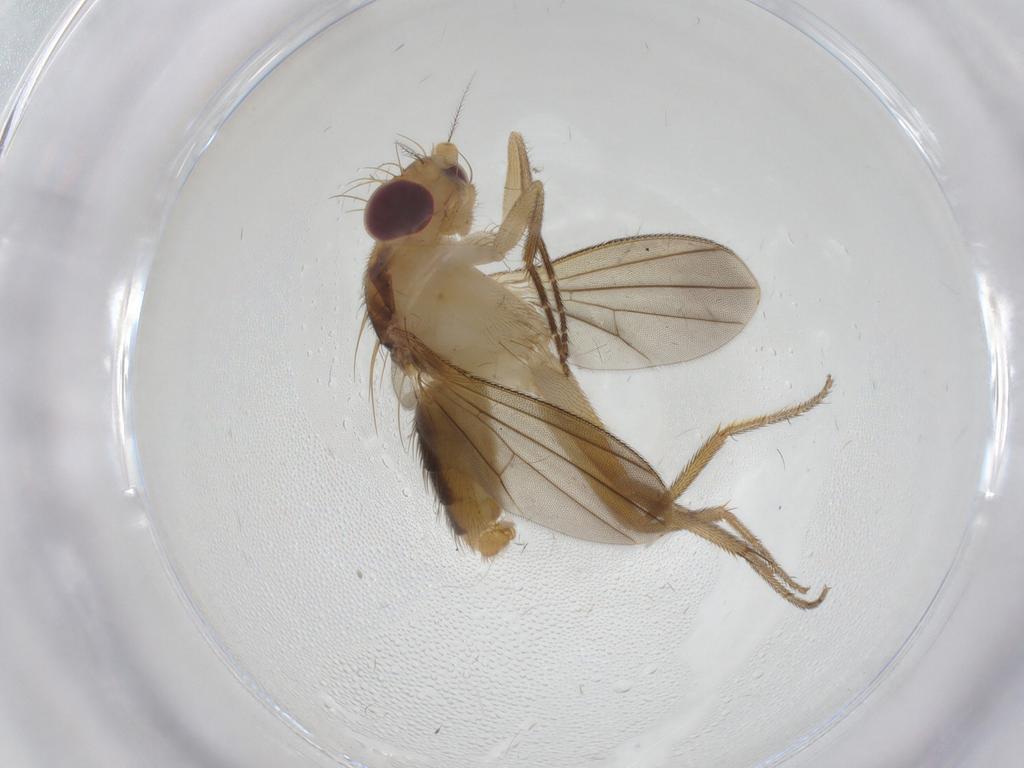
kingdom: Animalia
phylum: Arthropoda
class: Insecta
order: Diptera
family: Clusiidae
